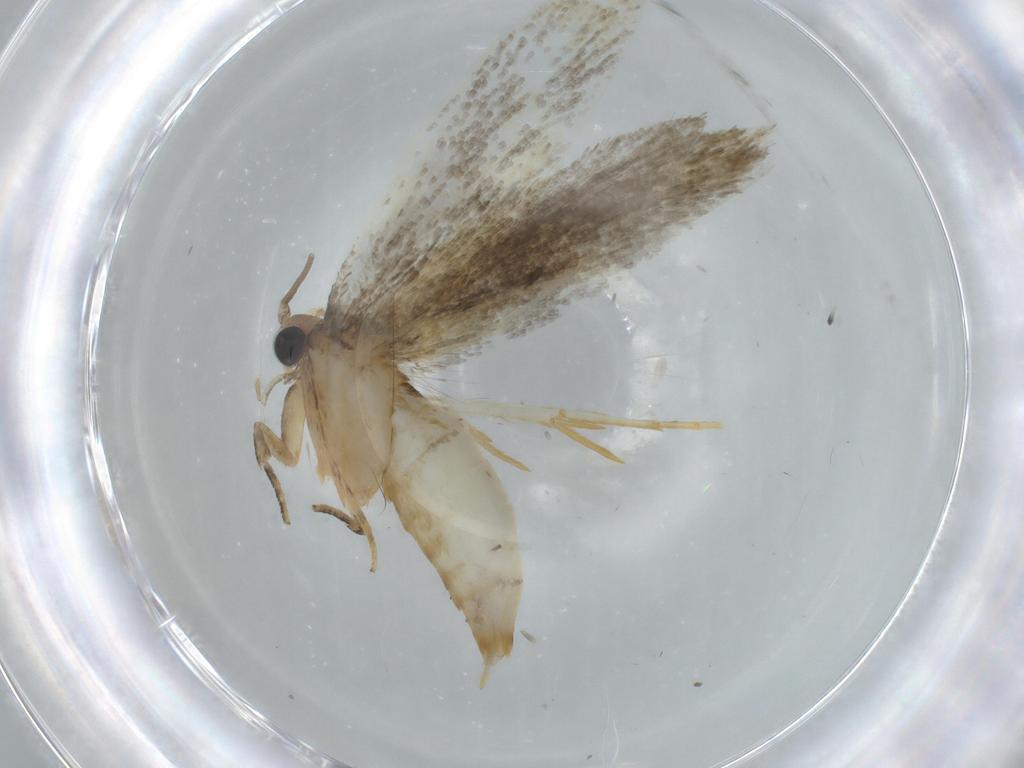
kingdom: Animalia
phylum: Arthropoda
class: Insecta
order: Lepidoptera
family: Tineidae
